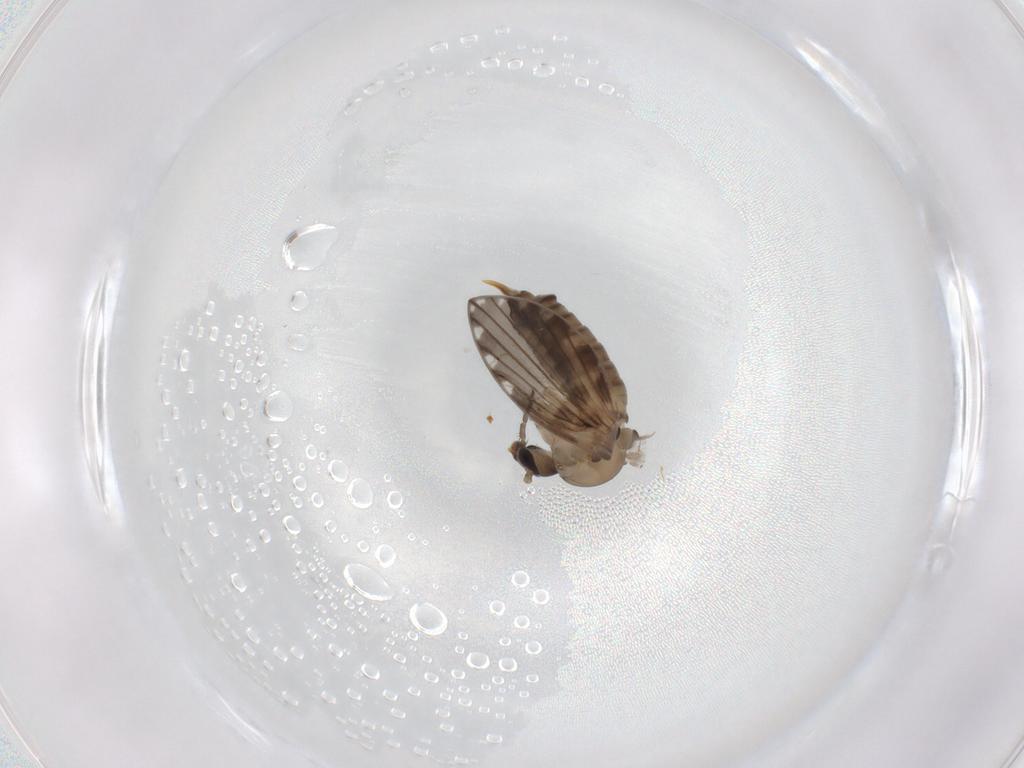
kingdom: Animalia
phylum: Arthropoda
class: Insecta
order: Diptera
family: Psychodidae
